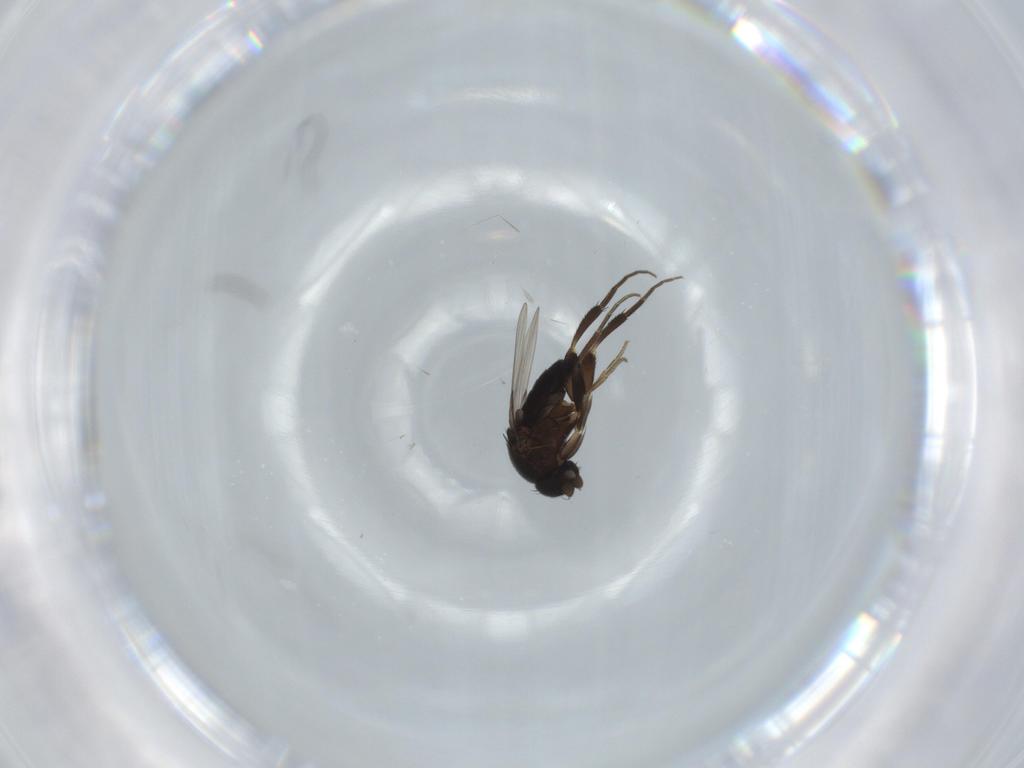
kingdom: Animalia
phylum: Arthropoda
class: Insecta
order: Diptera
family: Phoridae
